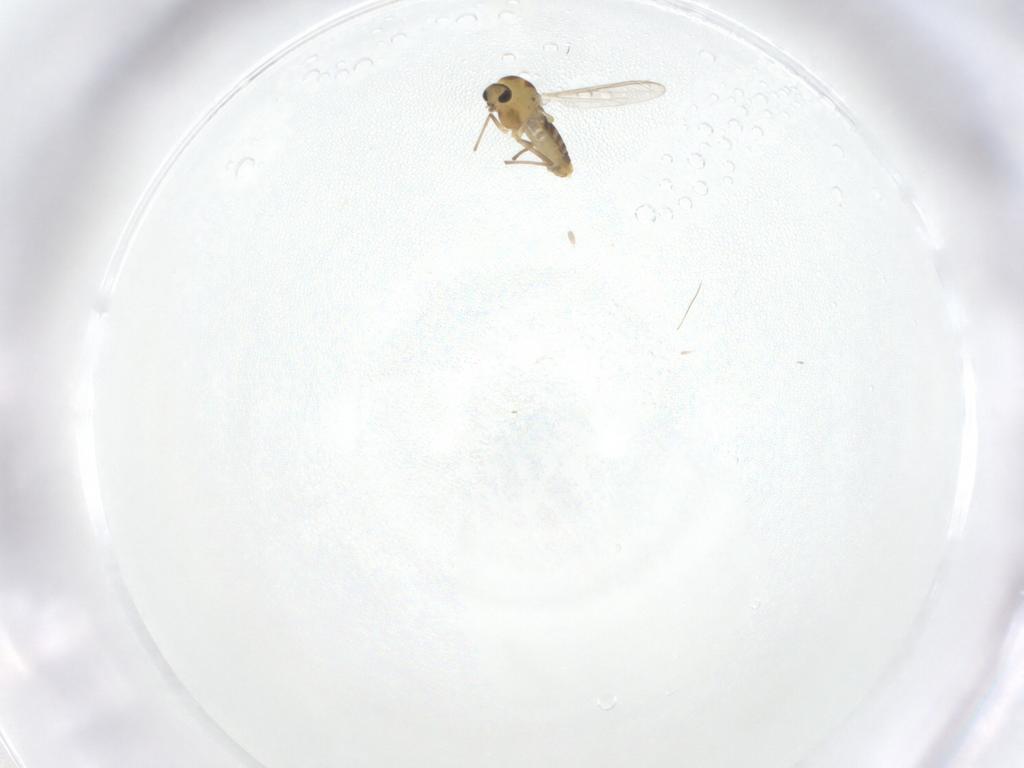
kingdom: Animalia
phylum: Arthropoda
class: Insecta
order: Diptera
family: Chironomidae
